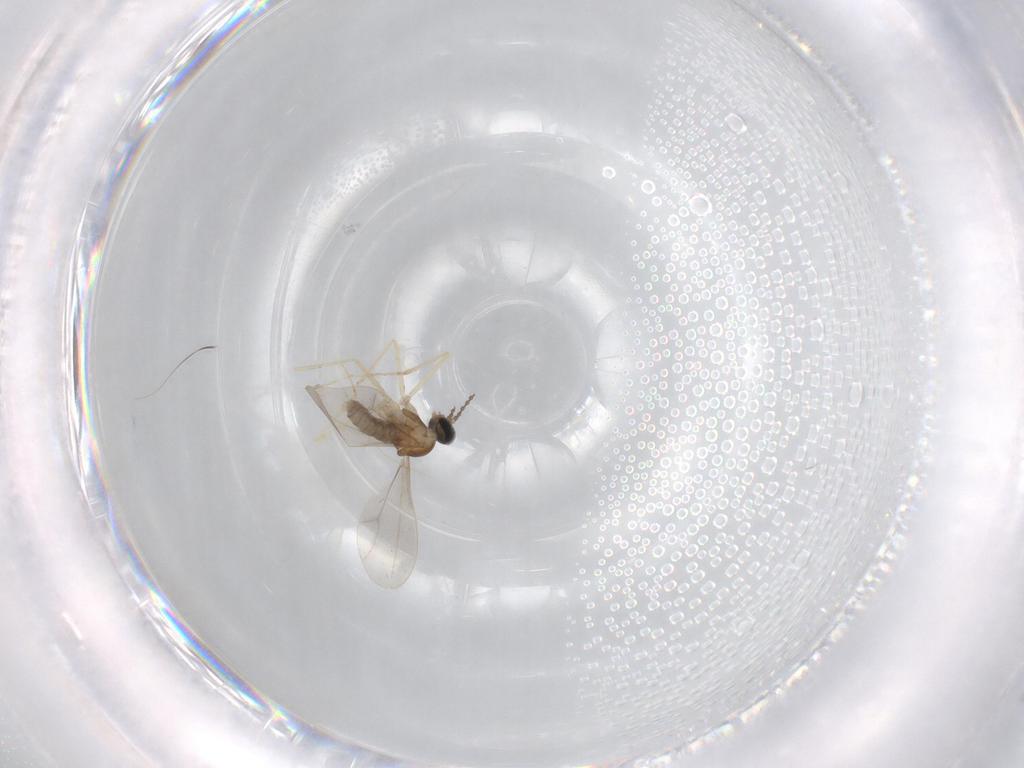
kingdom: Animalia
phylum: Arthropoda
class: Insecta
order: Diptera
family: Cecidomyiidae
